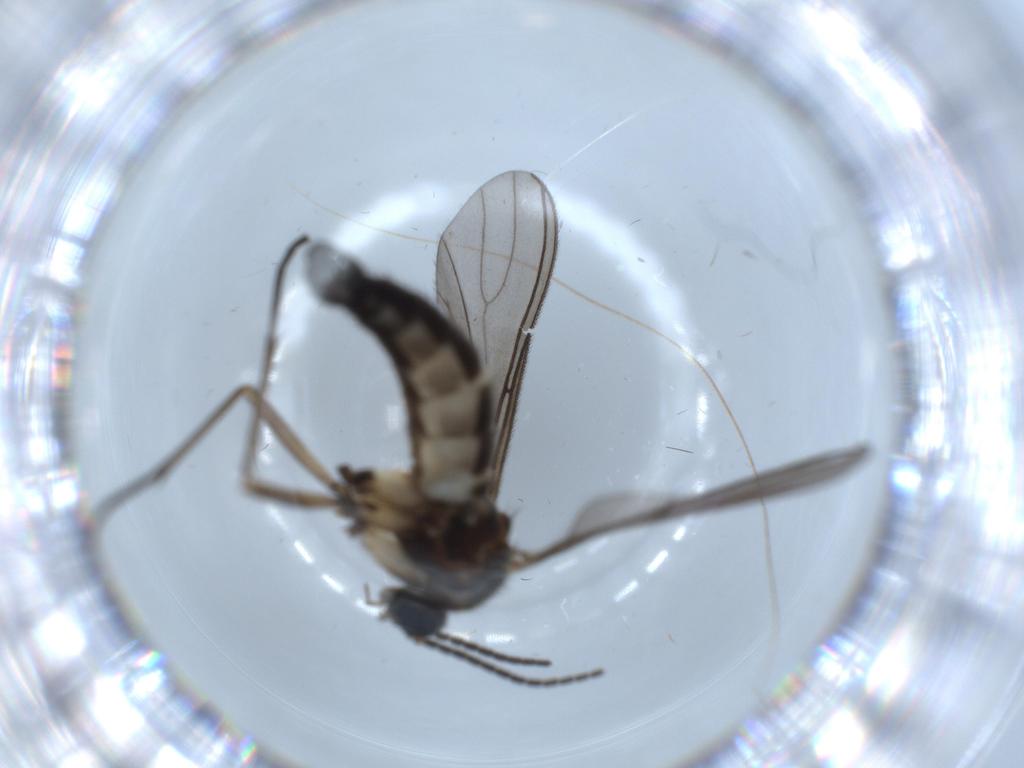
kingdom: Animalia
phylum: Arthropoda
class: Insecta
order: Diptera
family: Sciaridae
